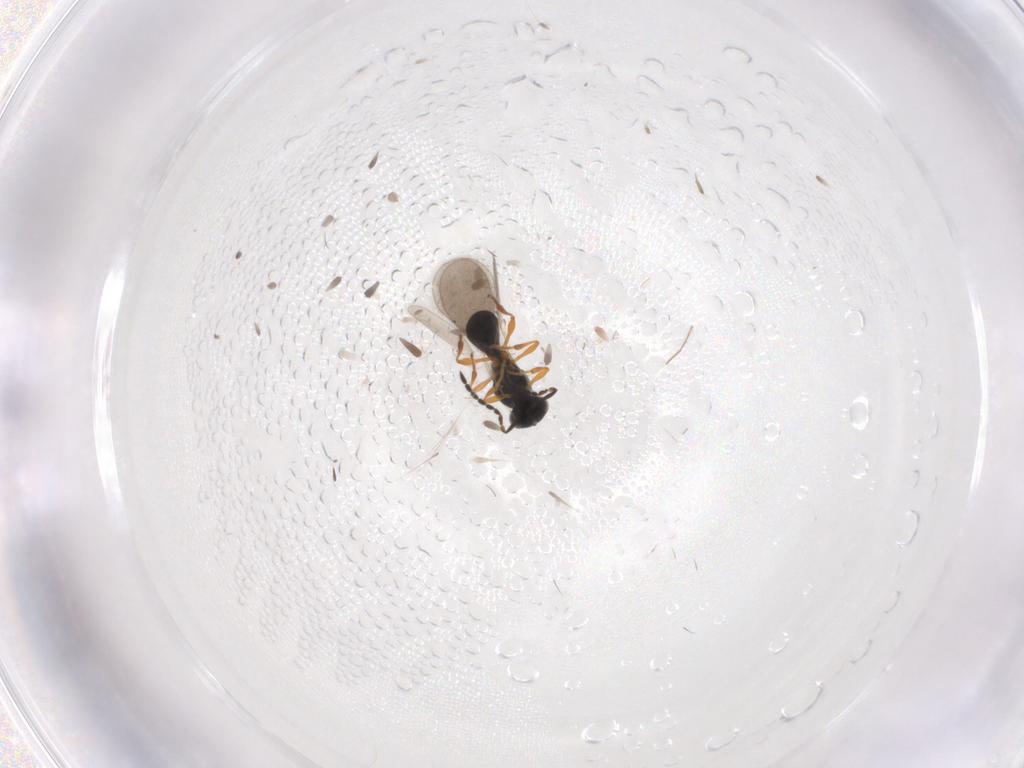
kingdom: Animalia
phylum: Arthropoda
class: Insecta
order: Hymenoptera
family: Platygastridae
